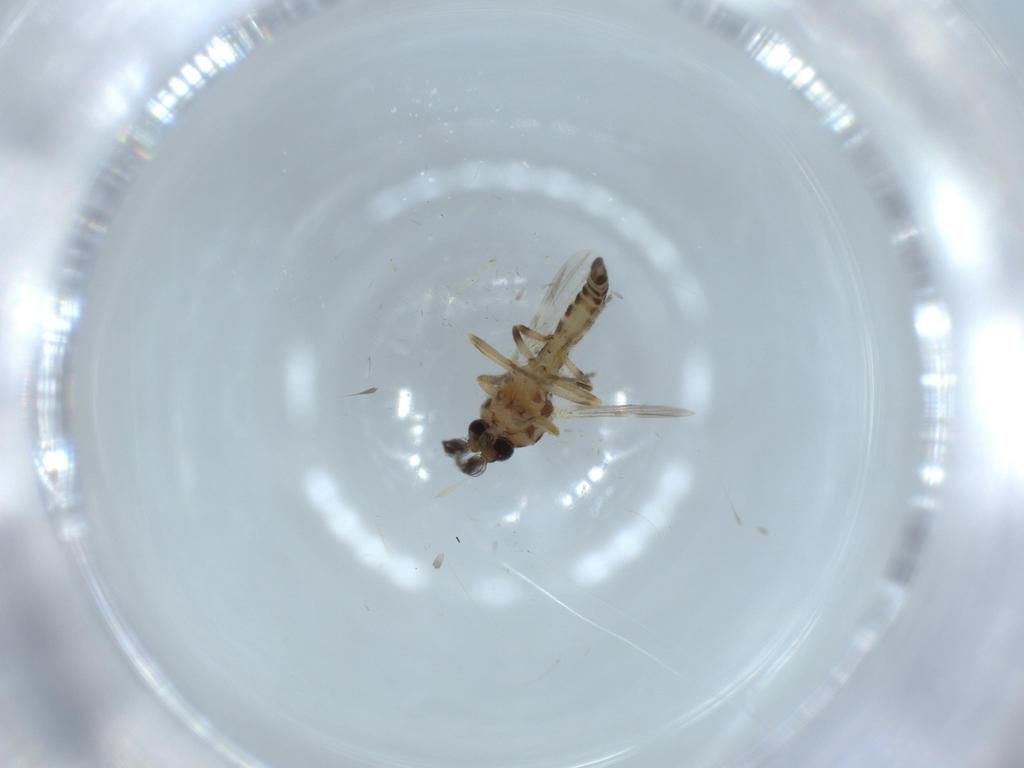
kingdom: Animalia
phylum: Arthropoda
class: Insecta
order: Diptera
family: Ceratopogonidae
